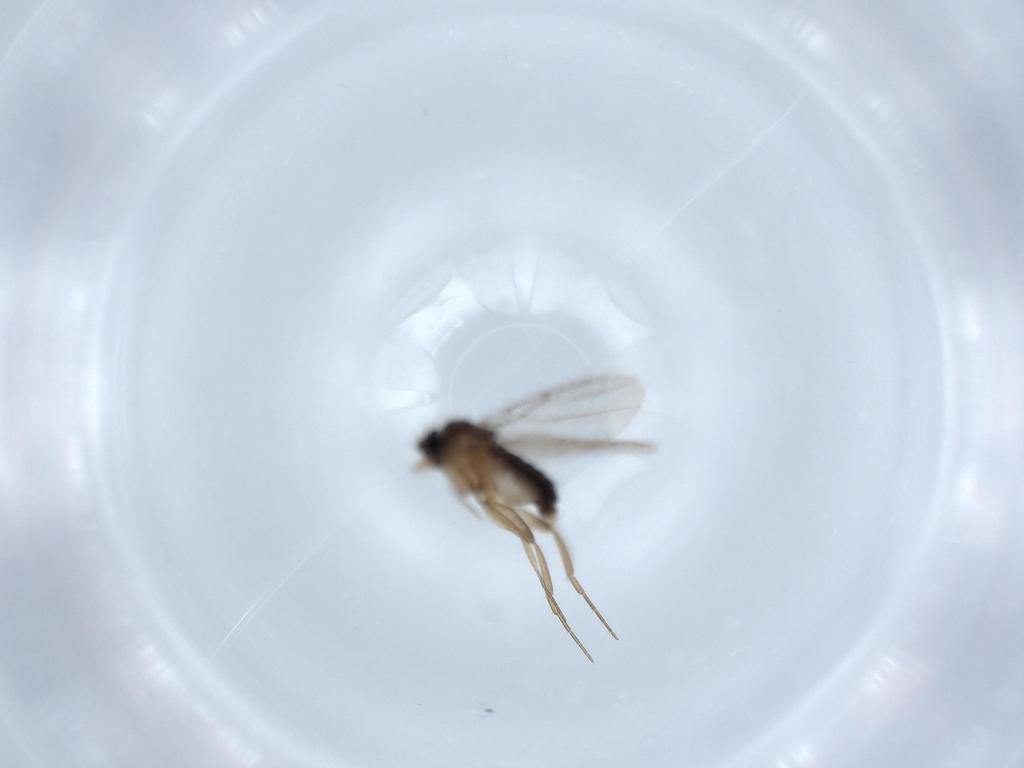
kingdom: Animalia
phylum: Arthropoda
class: Insecta
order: Diptera
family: Phoridae
